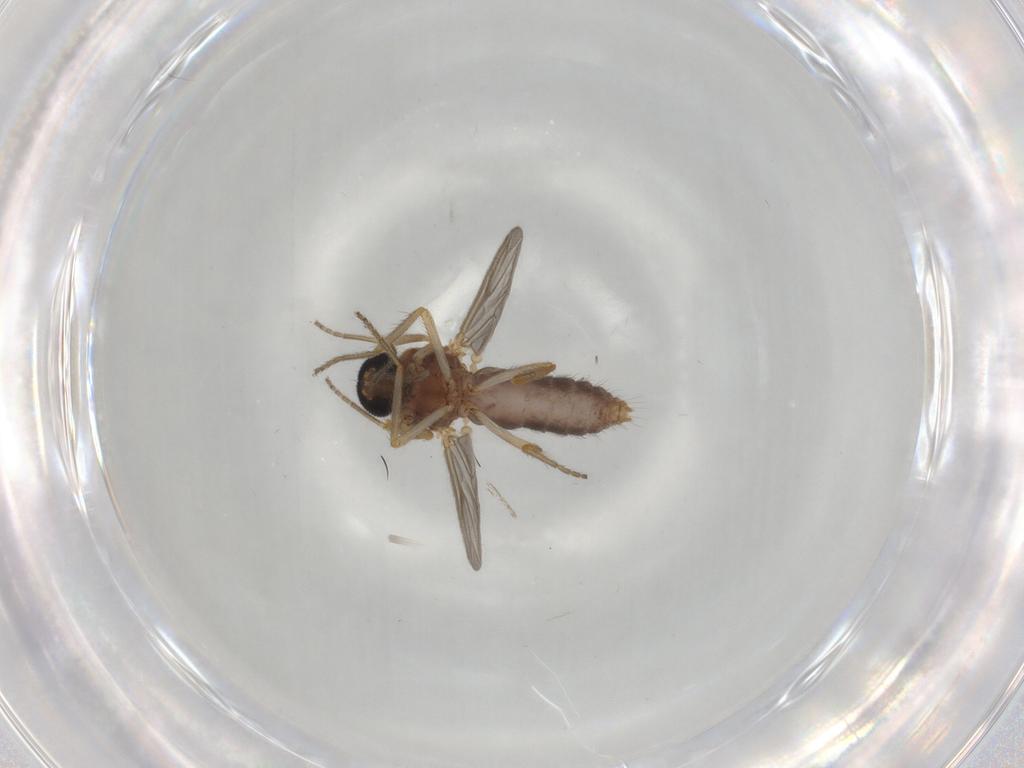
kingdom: Animalia
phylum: Arthropoda
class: Insecta
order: Diptera
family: Ceratopogonidae
